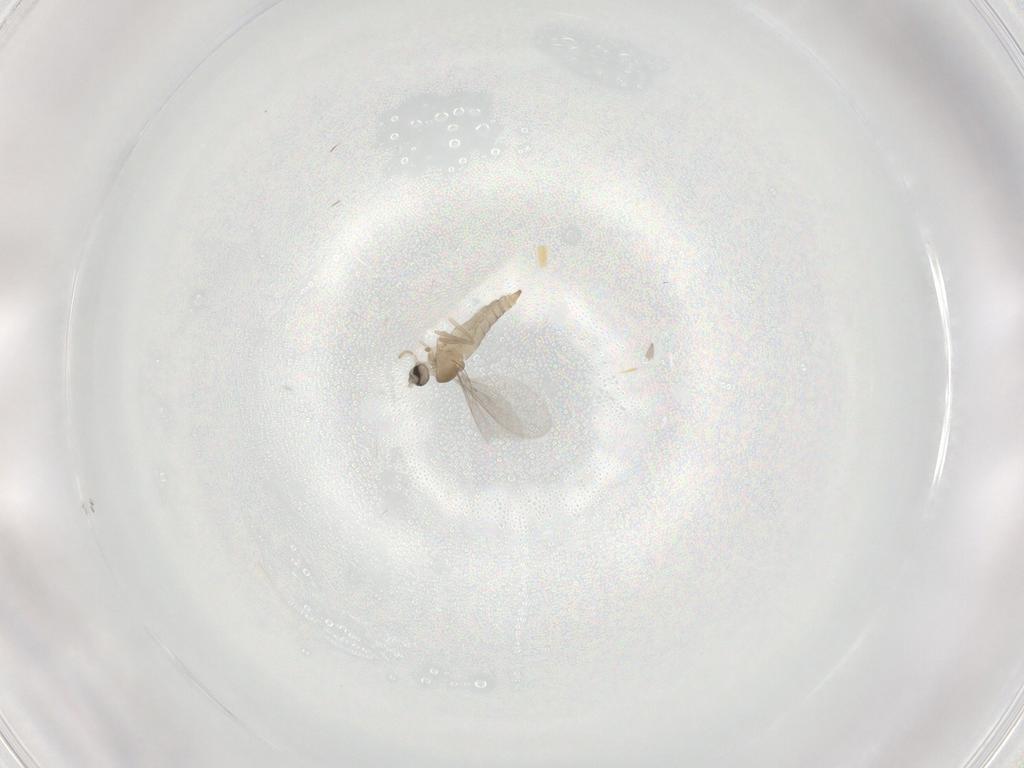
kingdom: Animalia
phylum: Arthropoda
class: Insecta
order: Diptera
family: Cecidomyiidae
